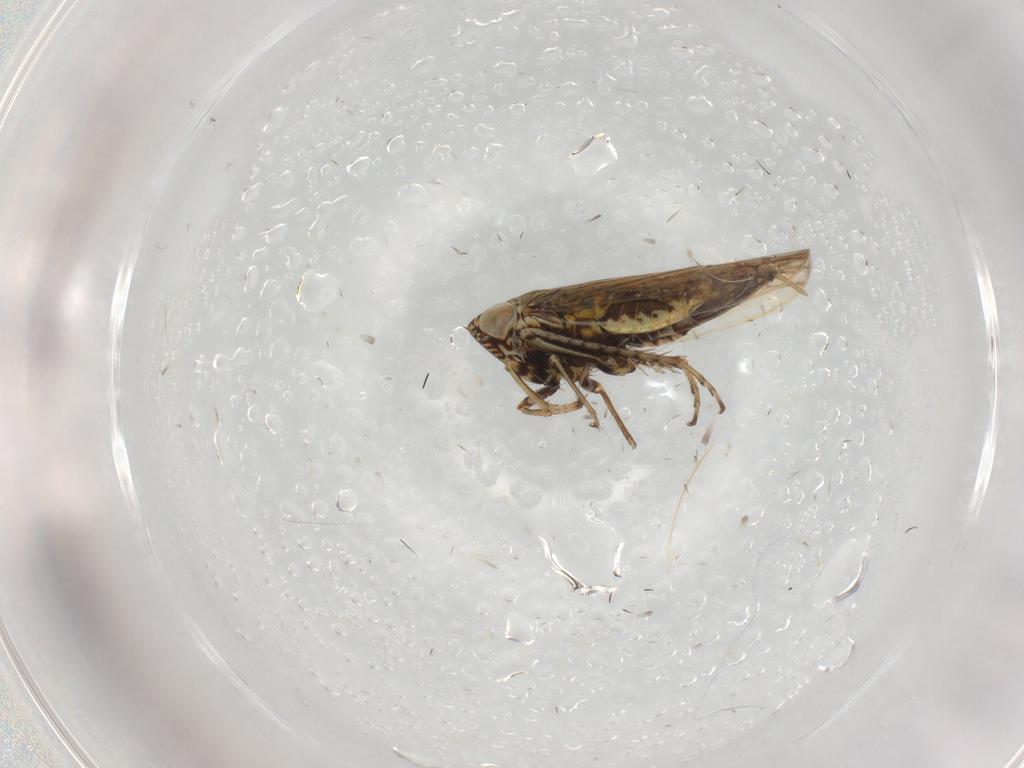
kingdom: Animalia
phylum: Arthropoda
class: Insecta
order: Hemiptera
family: Cicadellidae
